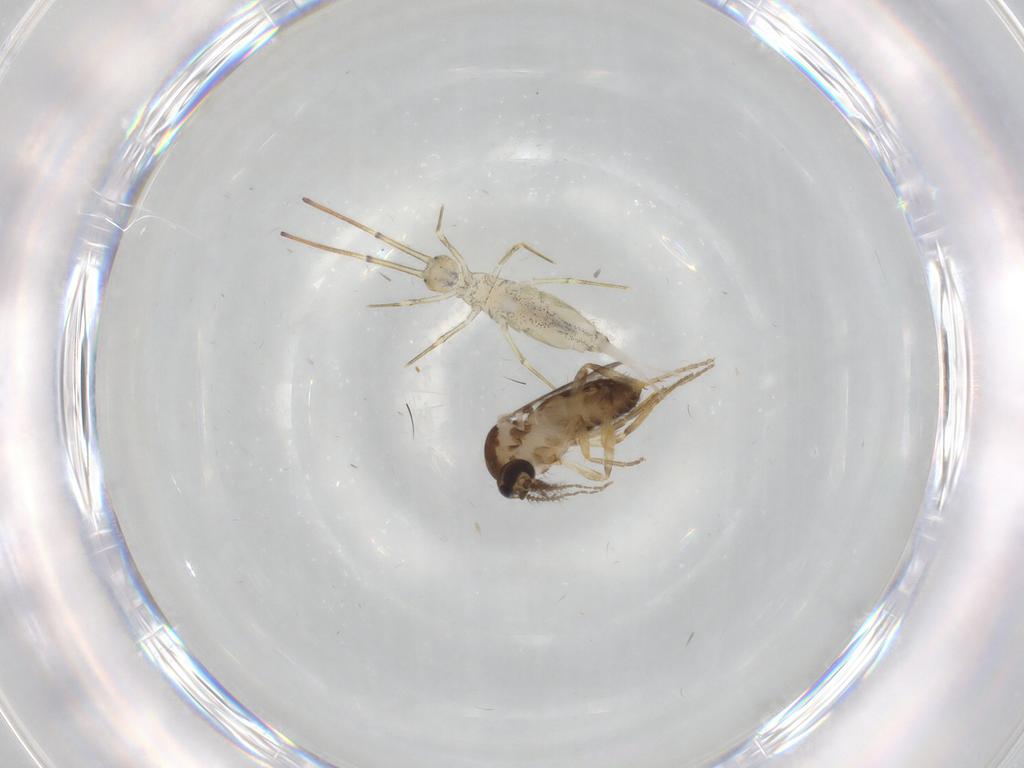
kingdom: Animalia
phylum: Arthropoda
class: Insecta
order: Diptera
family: Ceratopogonidae
